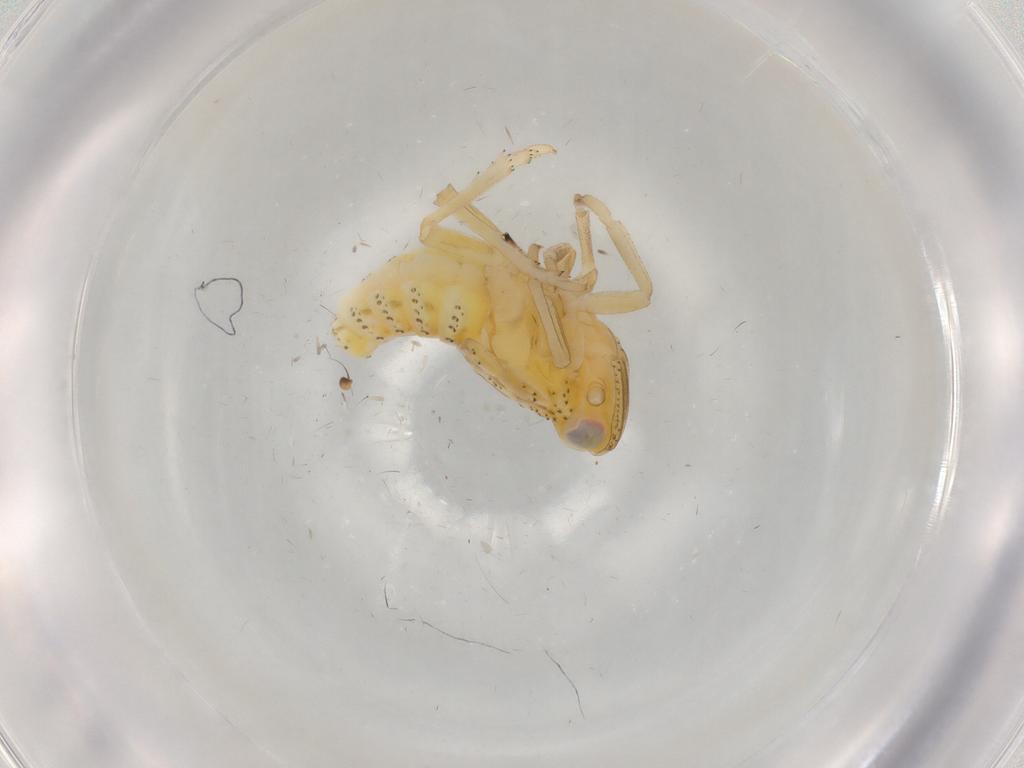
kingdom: Animalia
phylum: Arthropoda
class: Insecta
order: Hemiptera
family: Tropiduchidae
